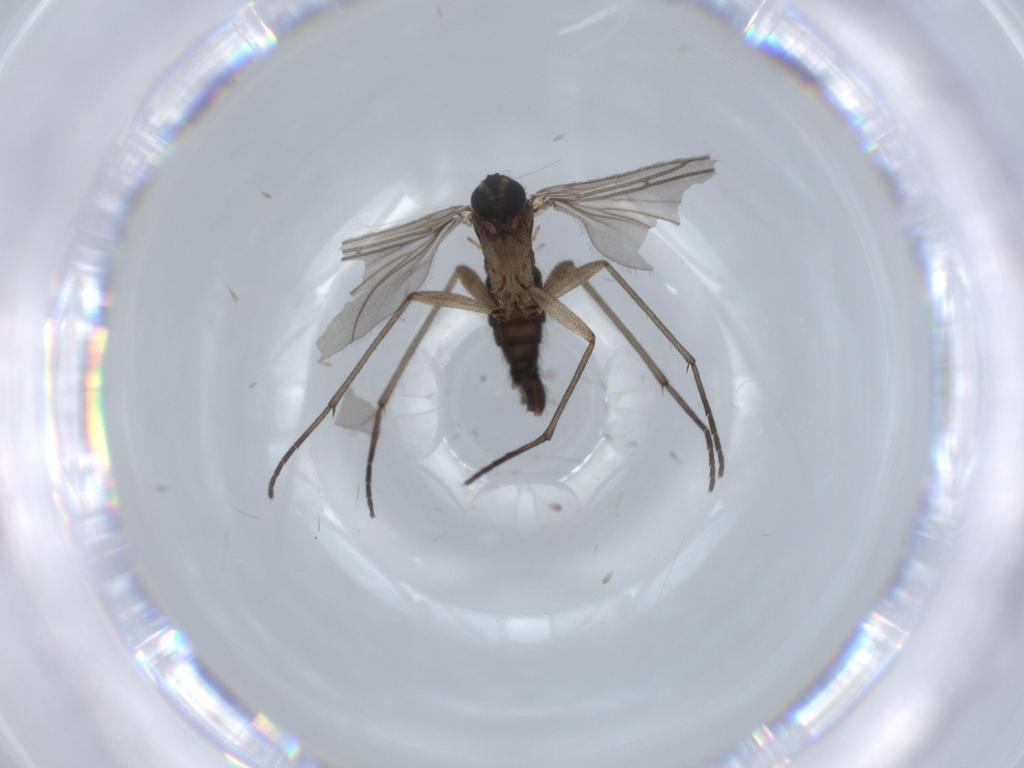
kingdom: Animalia
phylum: Arthropoda
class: Insecta
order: Diptera
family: Sciaridae
